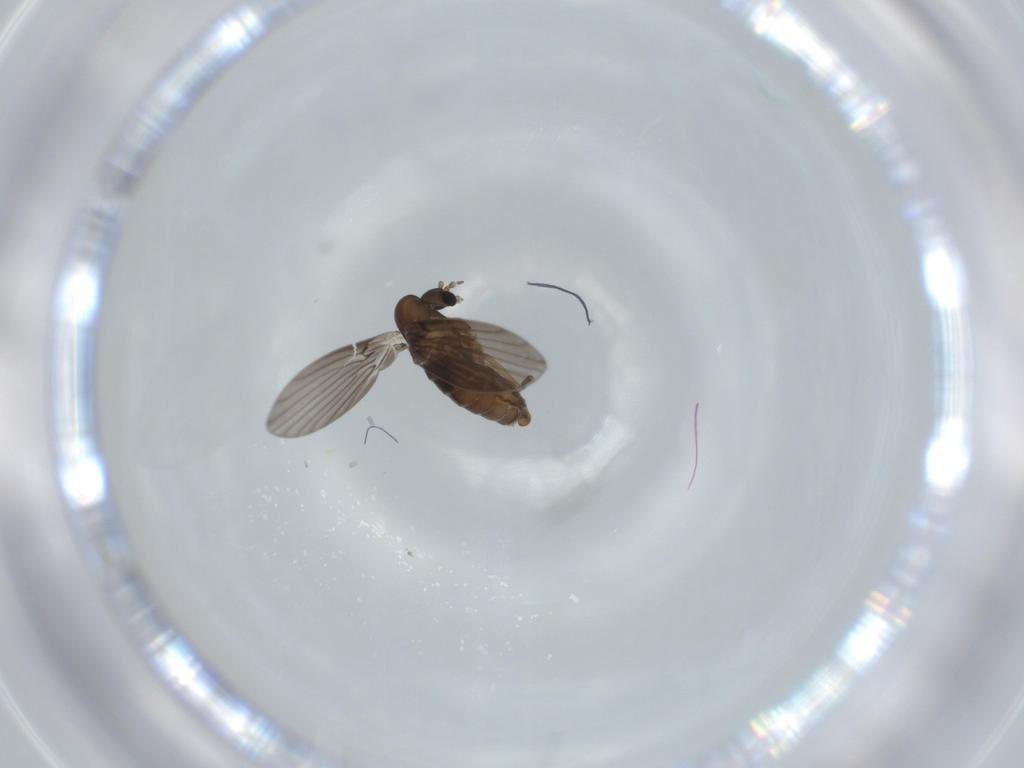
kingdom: Animalia
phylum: Arthropoda
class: Insecta
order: Diptera
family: Psychodidae
